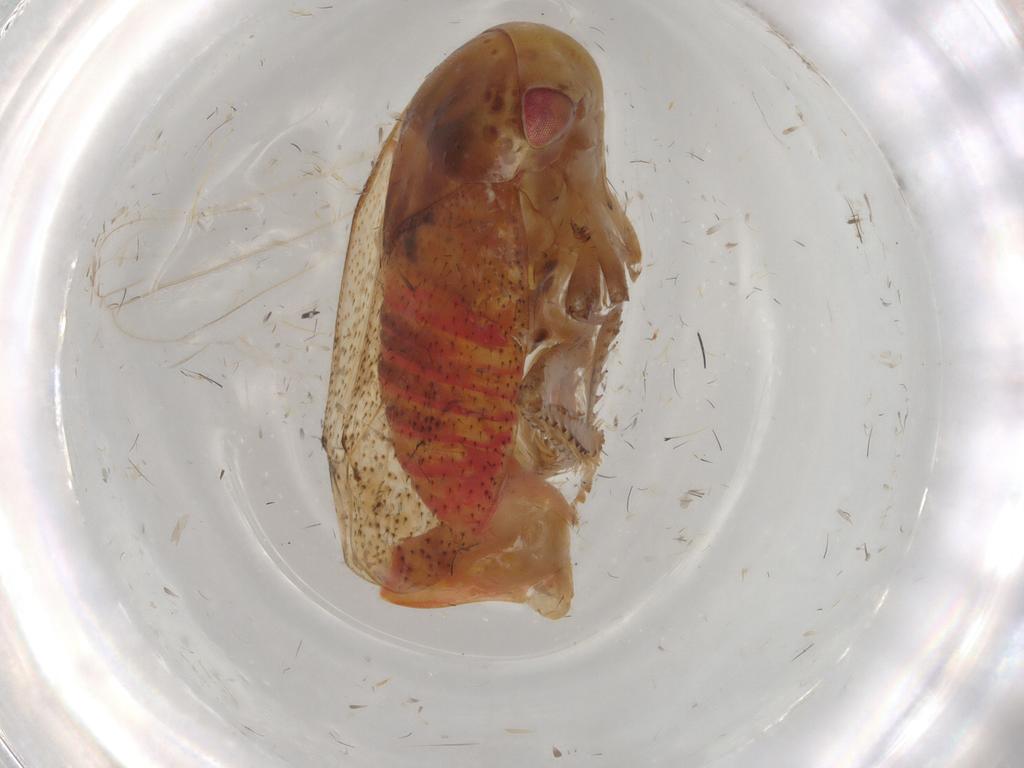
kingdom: Animalia
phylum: Arthropoda
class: Insecta
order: Hemiptera
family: Cicadellidae
